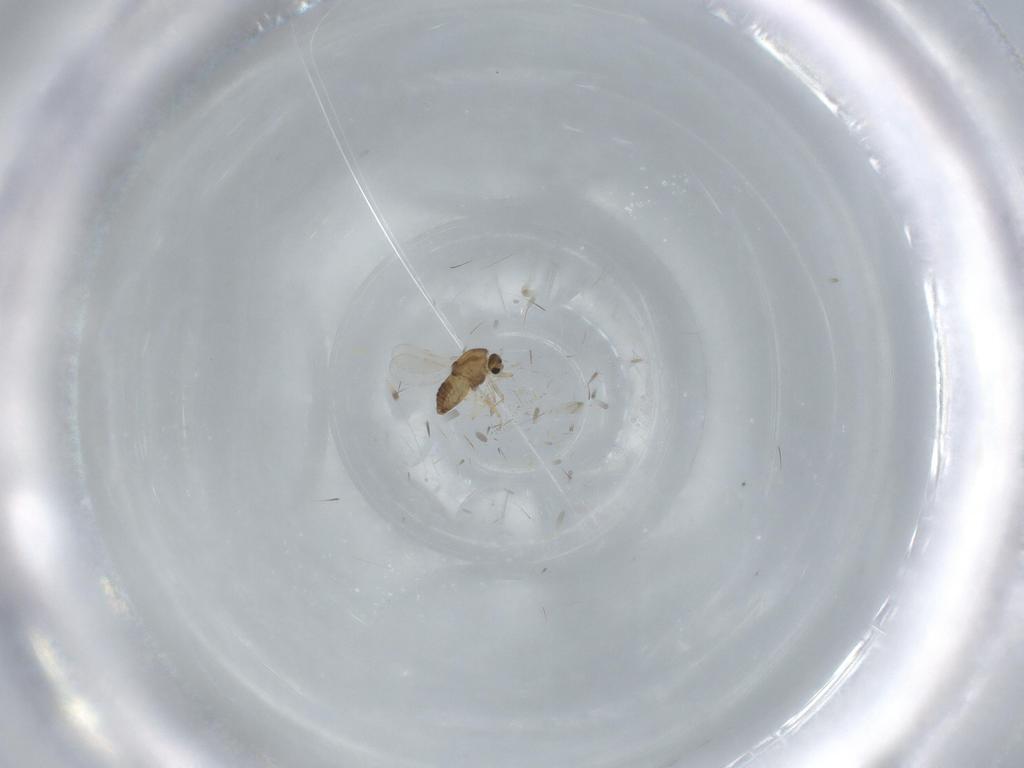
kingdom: Animalia
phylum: Arthropoda
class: Insecta
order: Diptera
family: Chironomidae
